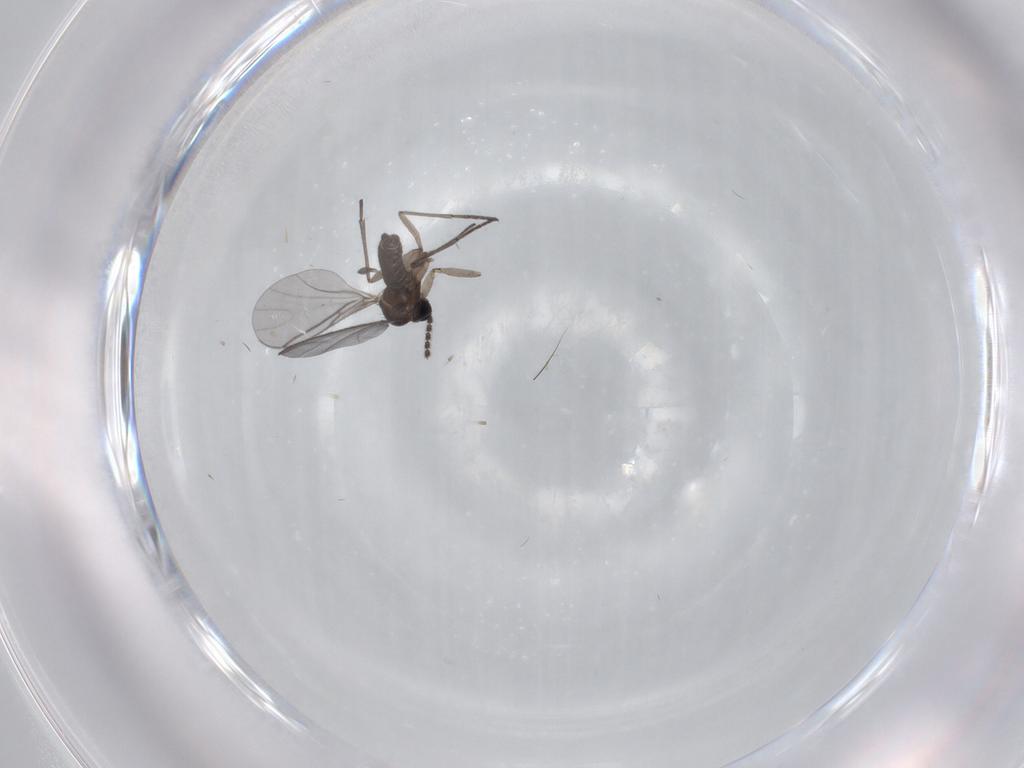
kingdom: Animalia
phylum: Arthropoda
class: Insecta
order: Diptera
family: Sciaridae
